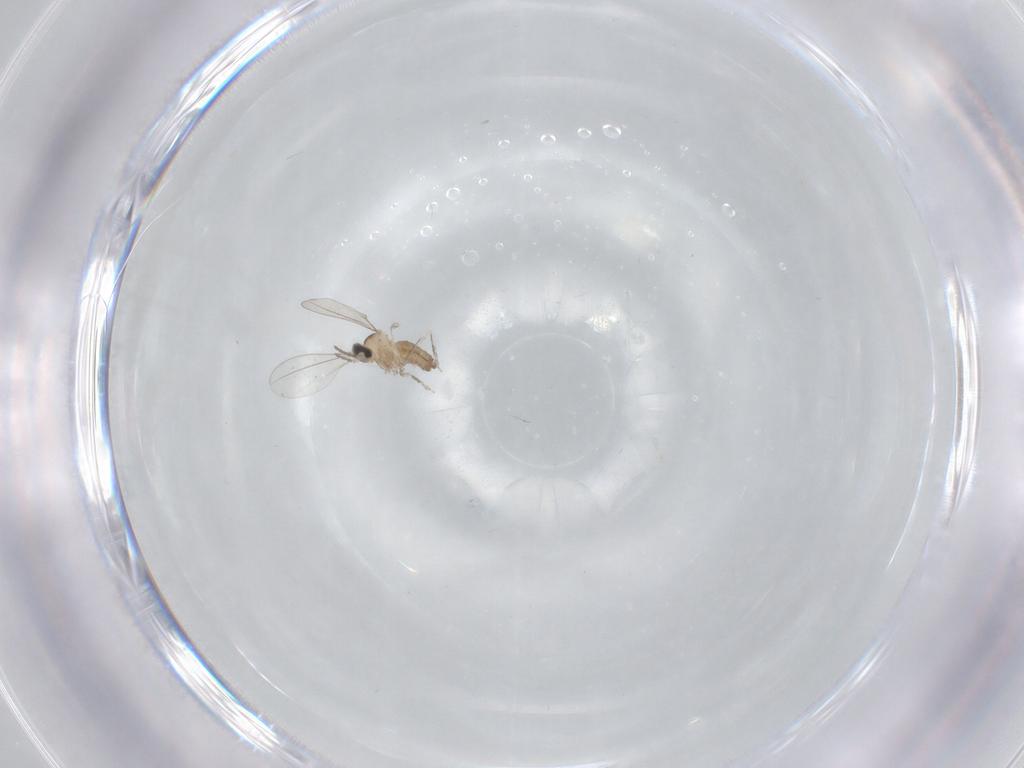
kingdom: Animalia
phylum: Arthropoda
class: Insecta
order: Diptera
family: Cecidomyiidae
